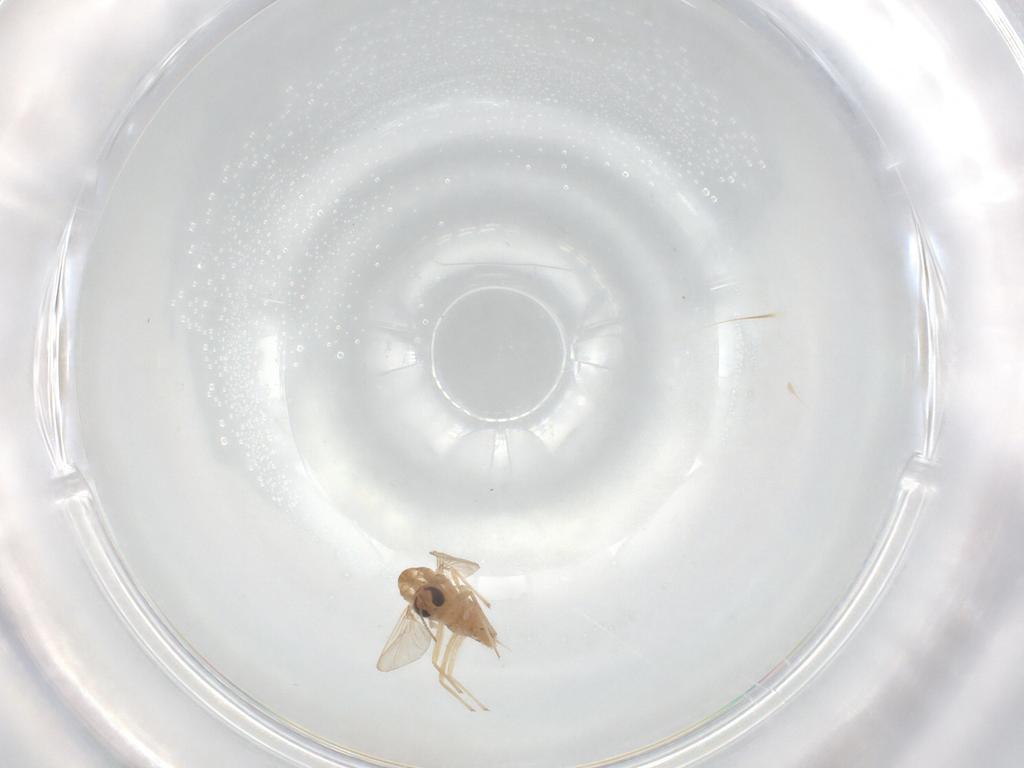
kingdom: Animalia
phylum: Arthropoda
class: Insecta
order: Diptera
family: Chironomidae
